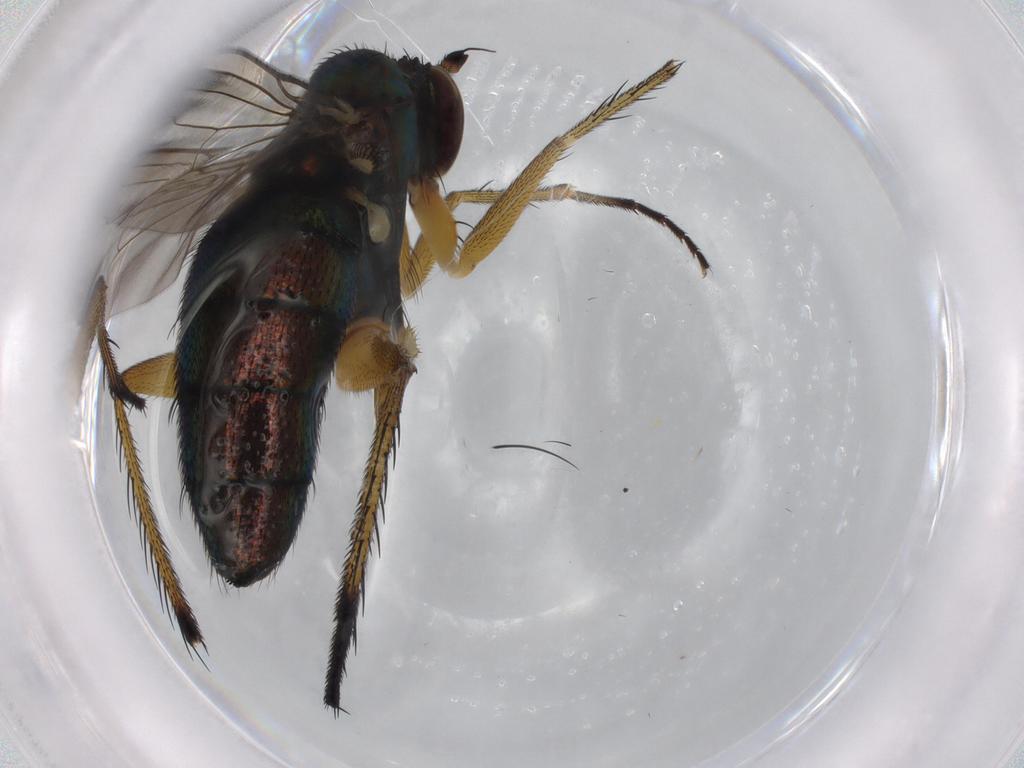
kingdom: Animalia
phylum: Arthropoda
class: Insecta
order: Diptera
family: Dolichopodidae
